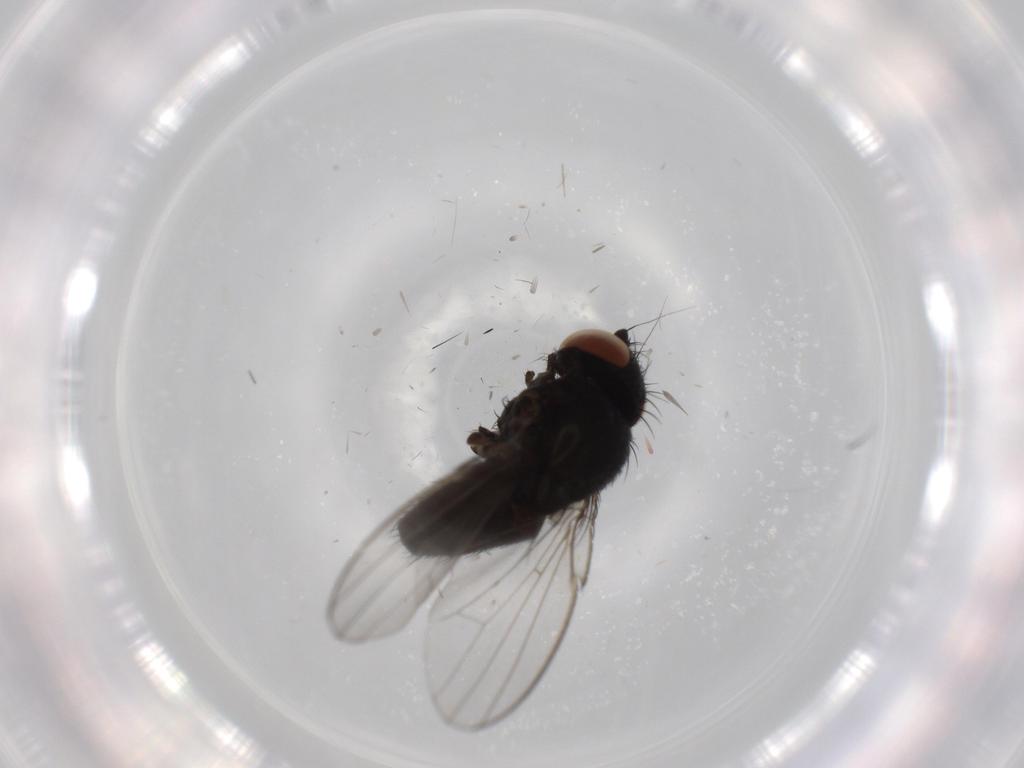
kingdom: Animalia
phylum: Arthropoda
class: Insecta
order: Diptera
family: Milichiidae
